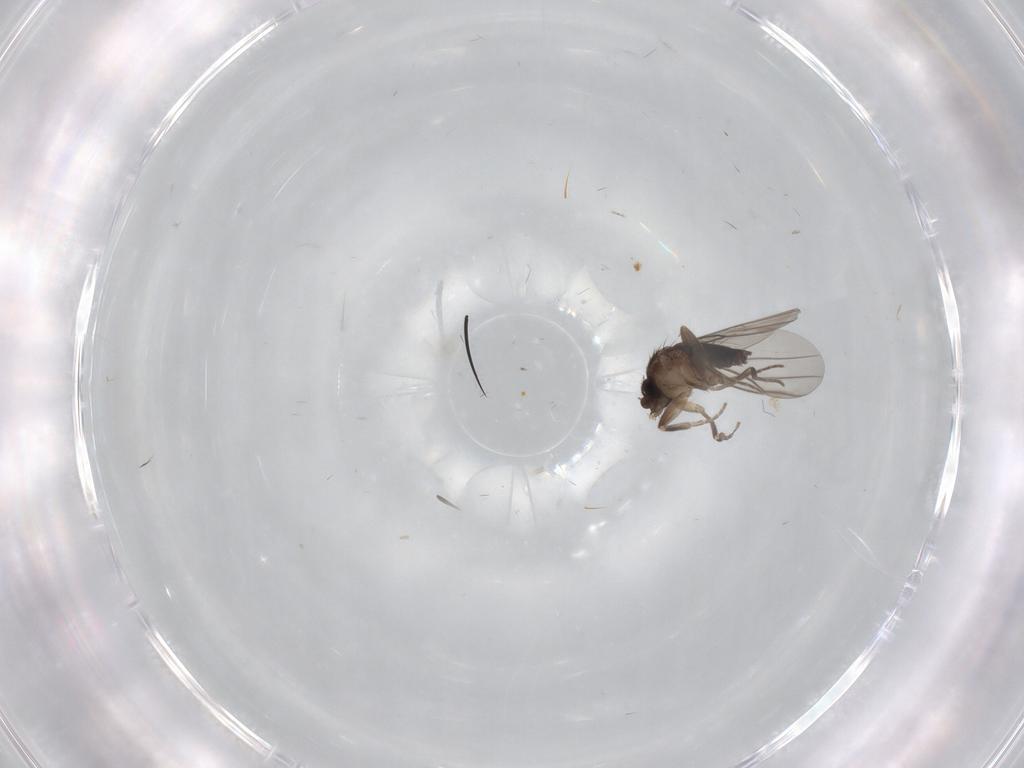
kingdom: Animalia
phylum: Arthropoda
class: Insecta
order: Diptera
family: Phoridae
